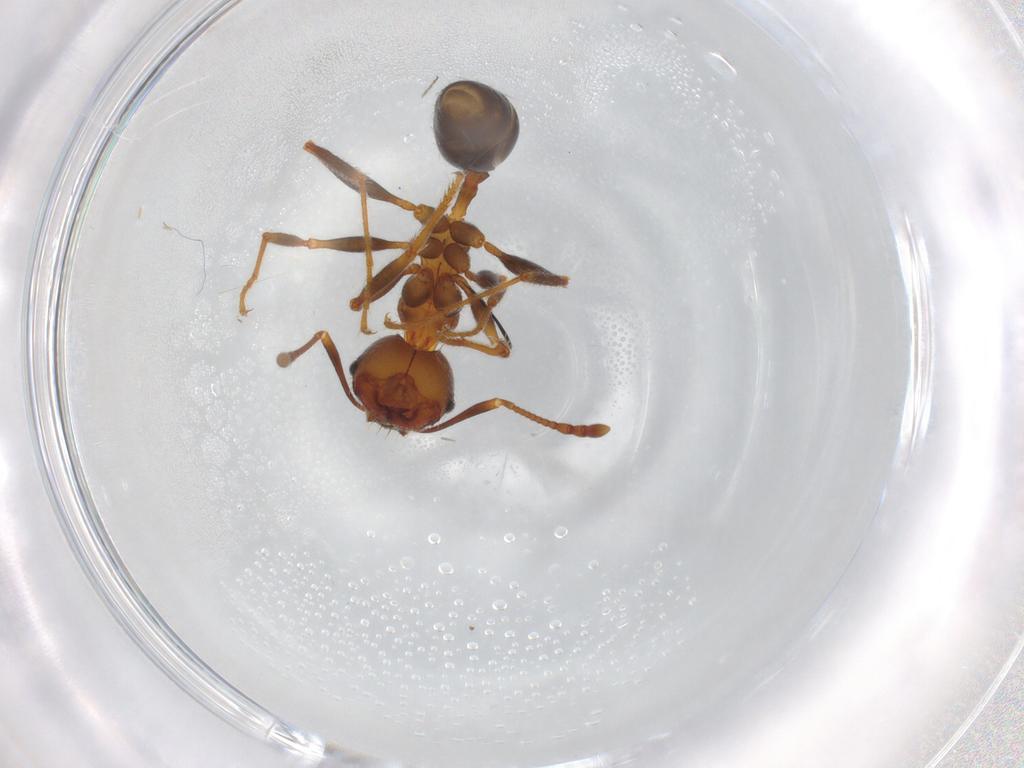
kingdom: Animalia
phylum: Arthropoda
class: Insecta
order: Hymenoptera
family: Formicidae
